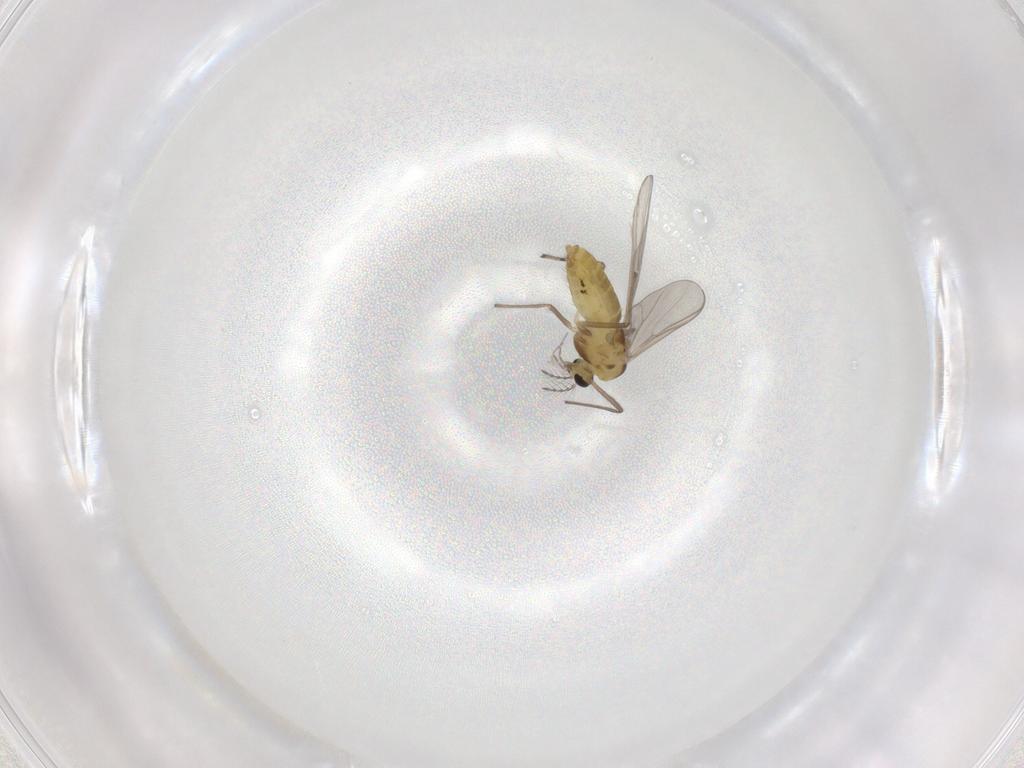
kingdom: Animalia
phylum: Arthropoda
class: Insecta
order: Diptera
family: Chironomidae
